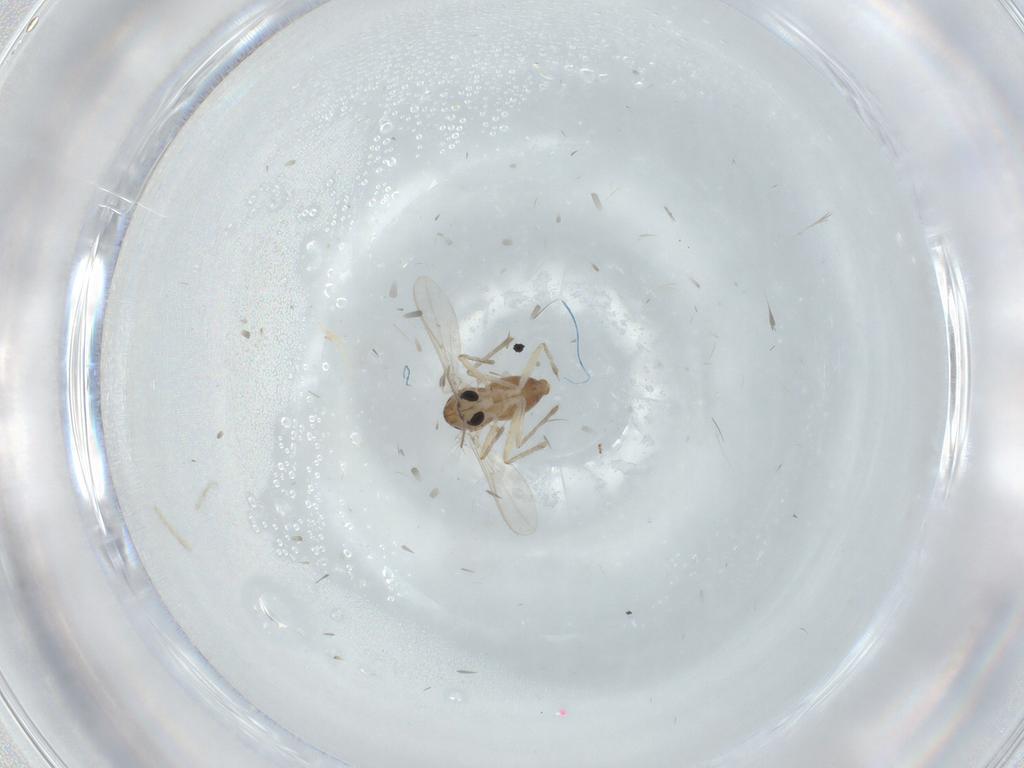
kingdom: Animalia
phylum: Arthropoda
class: Insecta
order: Diptera
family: Chironomidae
